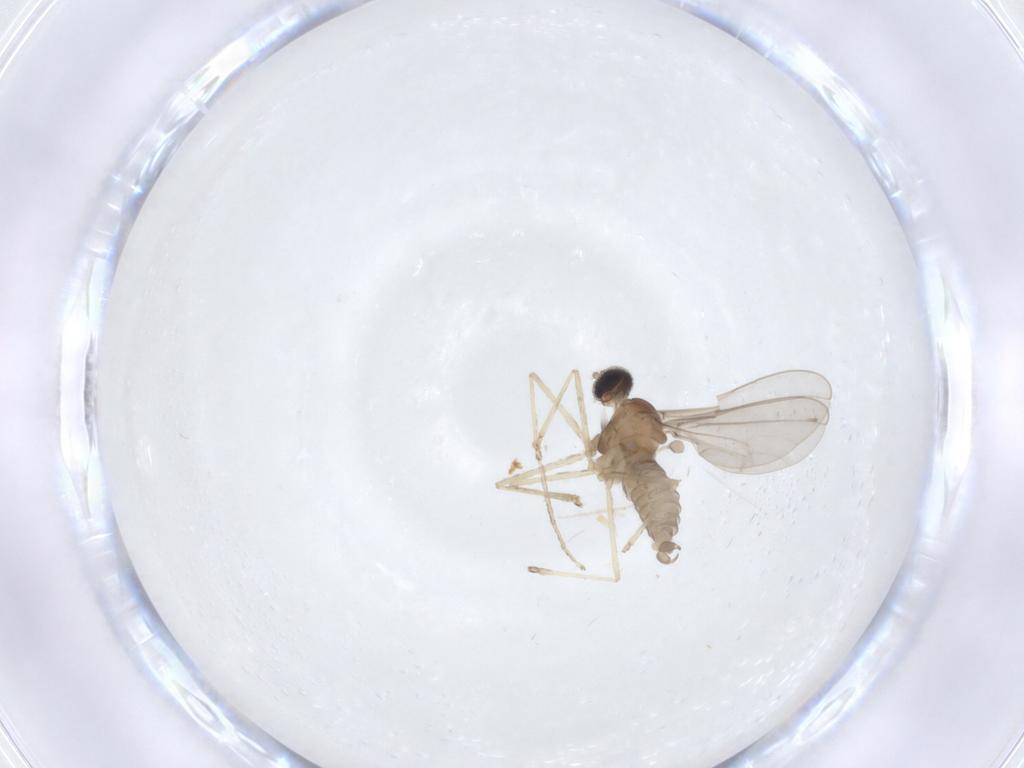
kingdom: Animalia
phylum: Arthropoda
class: Insecta
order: Diptera
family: Cecidomyiidae
